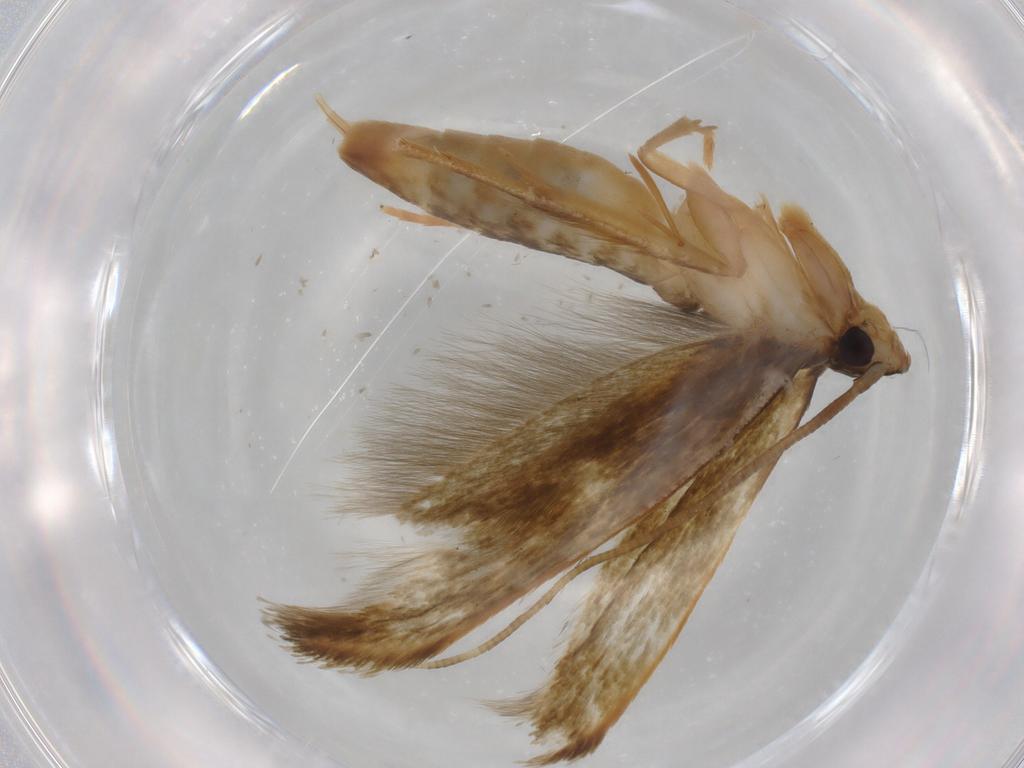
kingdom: Animalia
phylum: Arthropoda
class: Insecta
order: Lepidoptera
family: Tineidae
